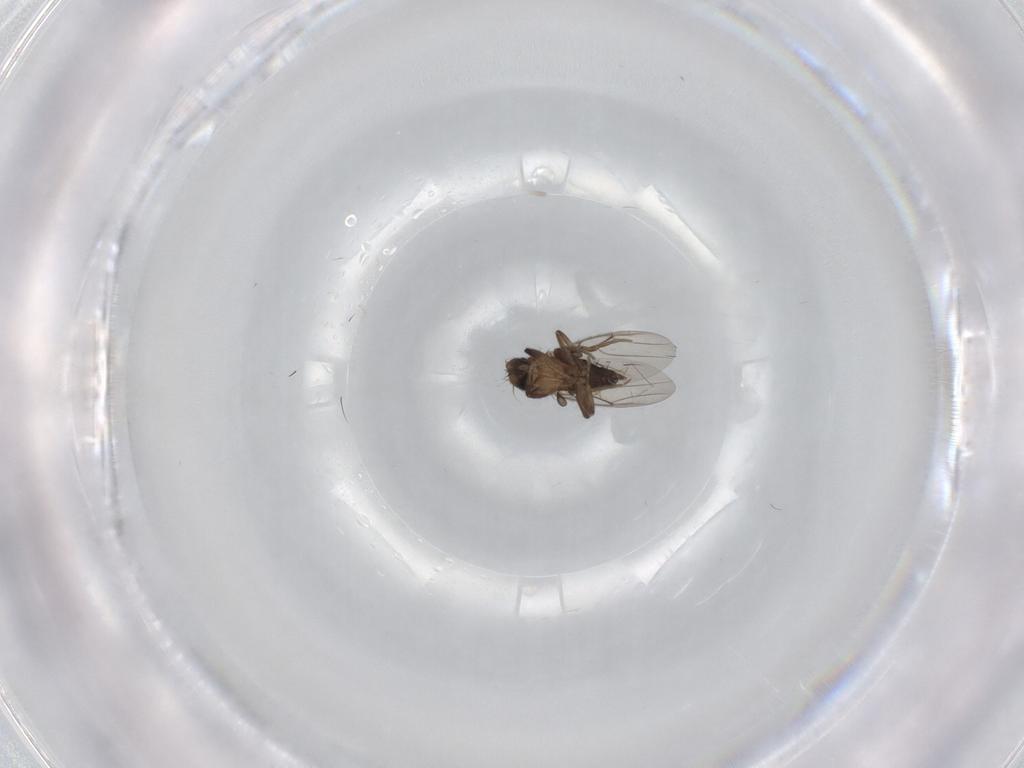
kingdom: Animalia
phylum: Arthropoda
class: Insecta
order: Diptera
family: Phoridae
